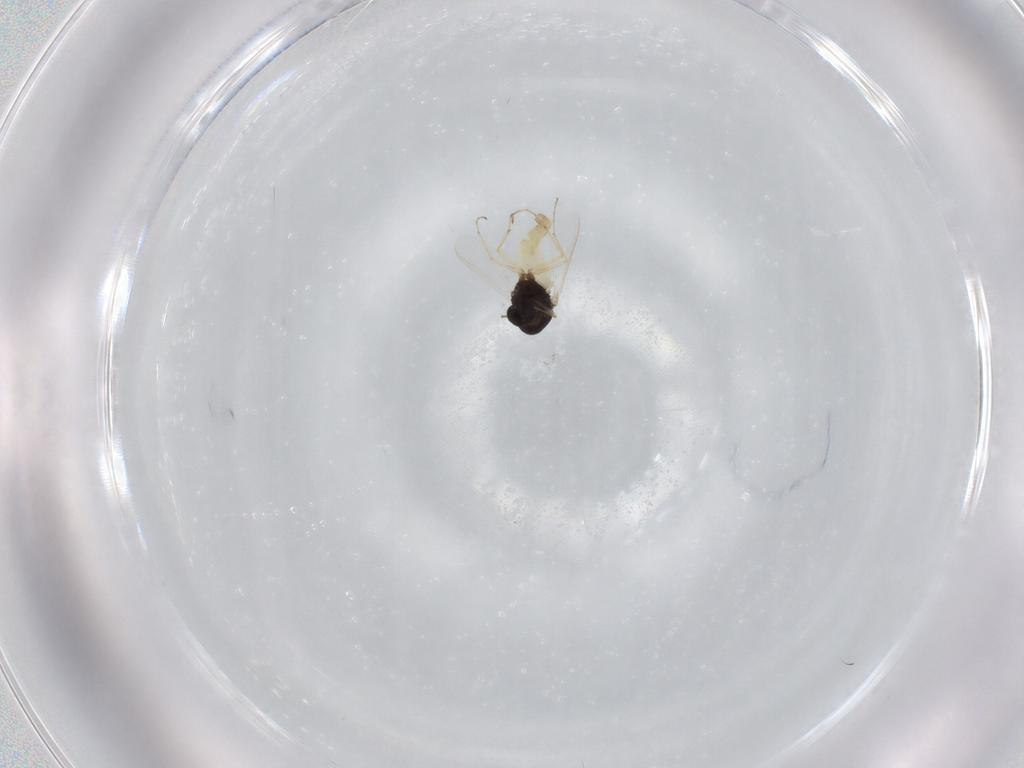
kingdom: Animalia
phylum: Arthropoda
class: Insecta
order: Diptera
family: Chironomidae
